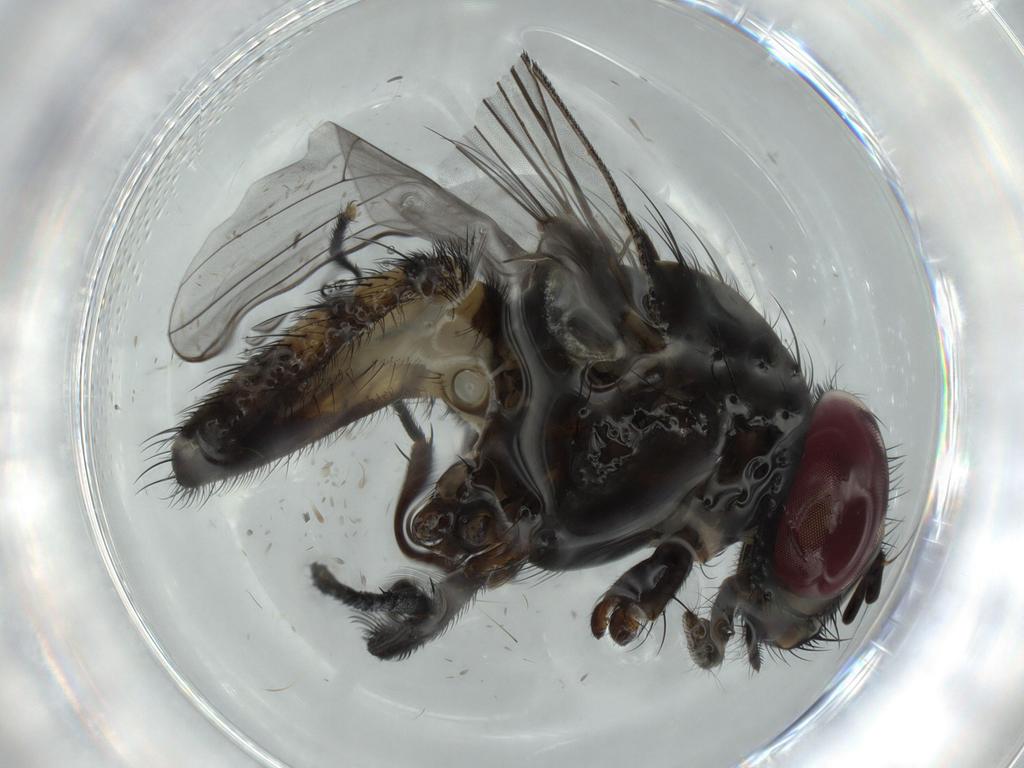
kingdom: Animalia
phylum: Arthropoda
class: Insecta
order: Diptera
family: Fannia
